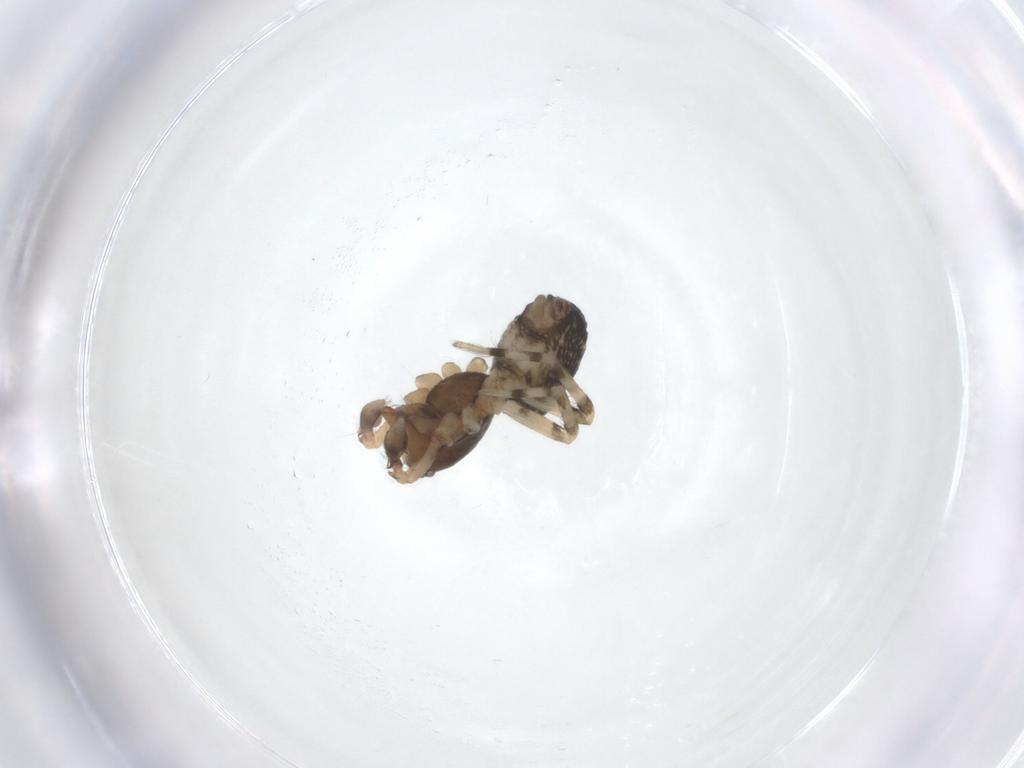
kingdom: Animalia
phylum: Arthropoda
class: Arachnida
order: Araneae
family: Dictynidae
